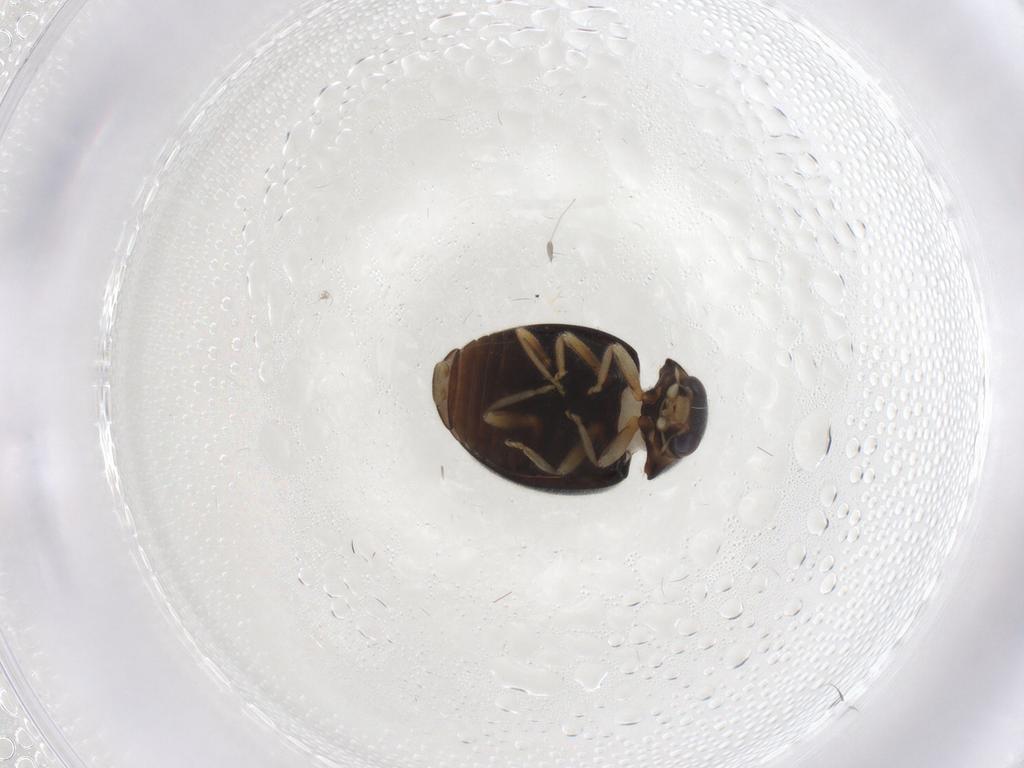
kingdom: Animalia
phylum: Arthropoda
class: Insecta
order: Coleoptera
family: Coccinellidae
